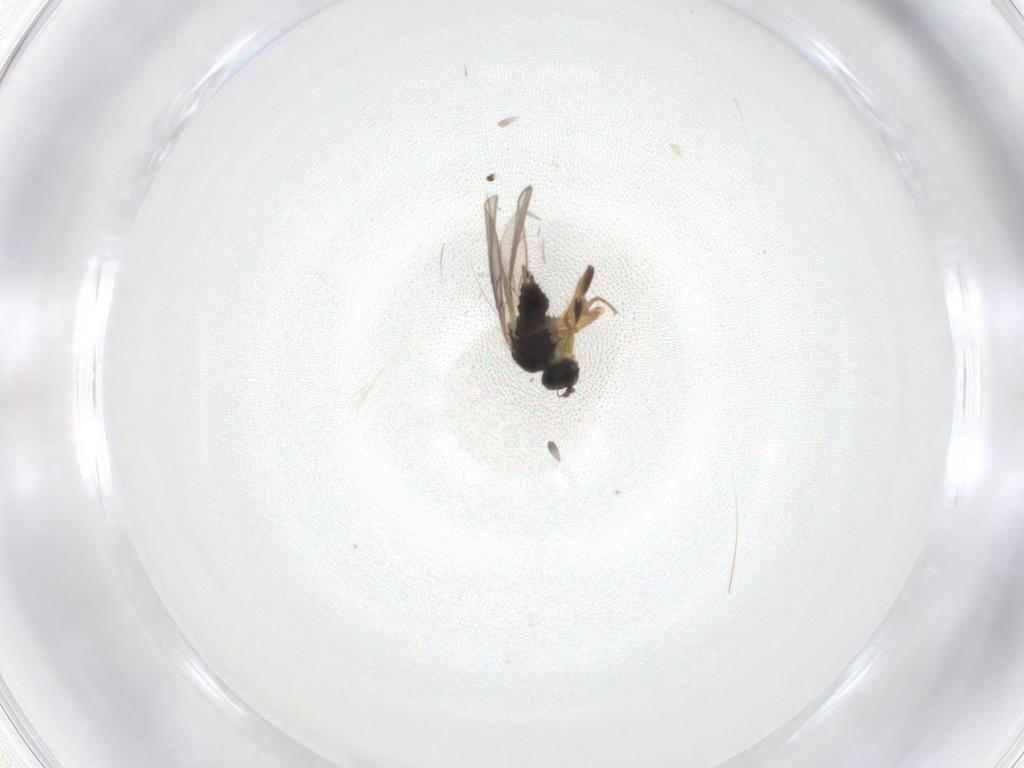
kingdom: Animalia
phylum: Arthropoda
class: Insecta
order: Diptera
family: Hybotidae
